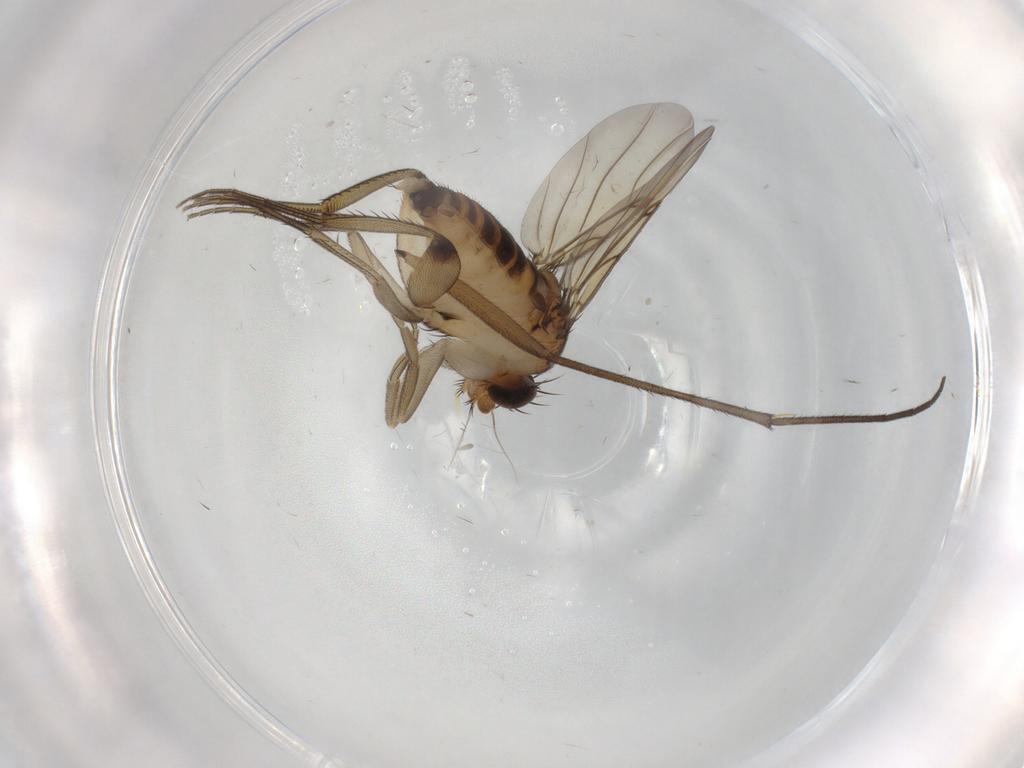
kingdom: Animalia
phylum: Arthropoda
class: Insecta
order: Diptera
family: Phoridae
